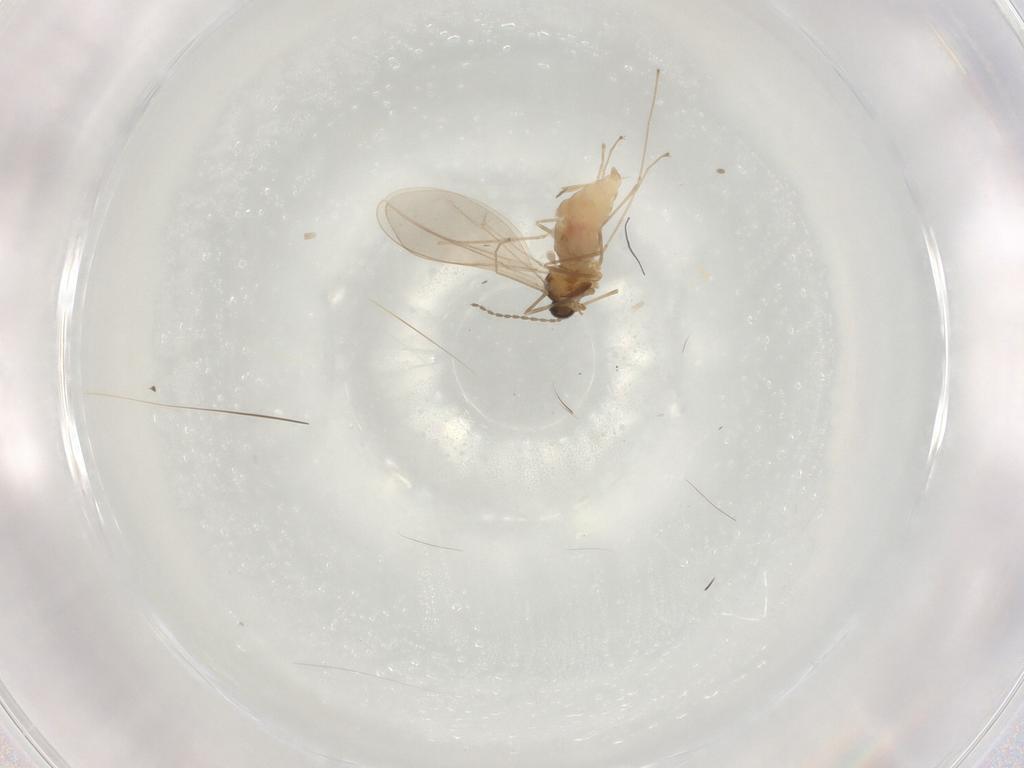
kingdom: Animalia
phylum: Arthropoda
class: Insecta
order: Diptera
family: Cecidomyiidae
